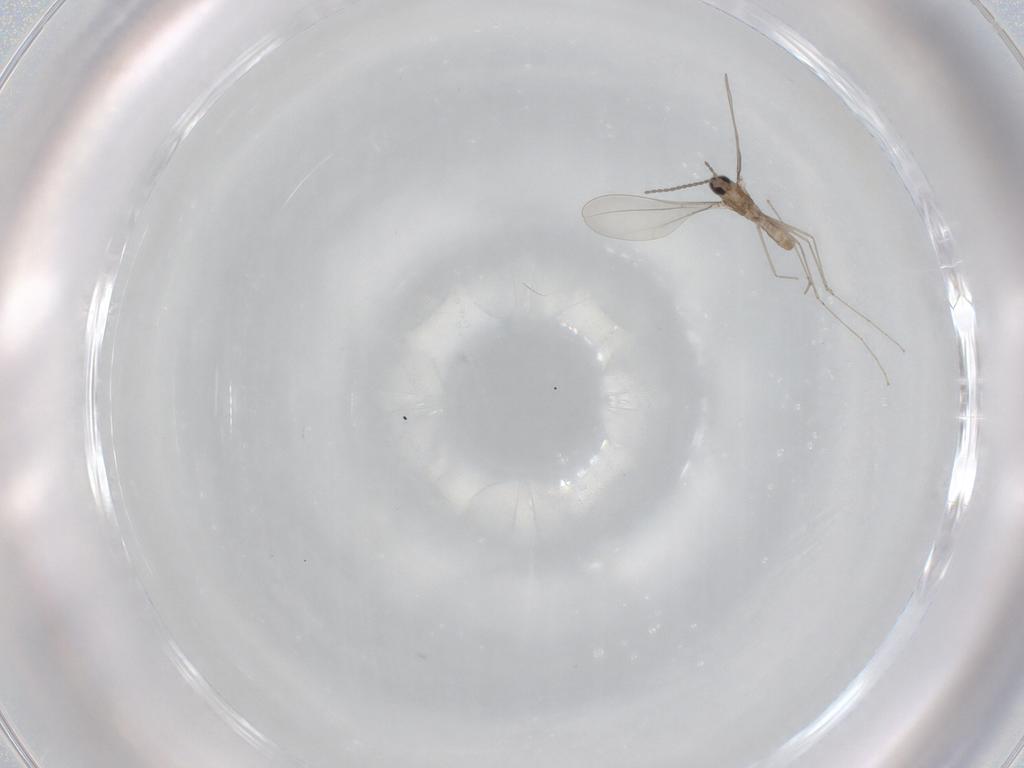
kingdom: Animalia
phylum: Arthropoda
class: Insecta
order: Diptera
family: Cecidomyiidae
